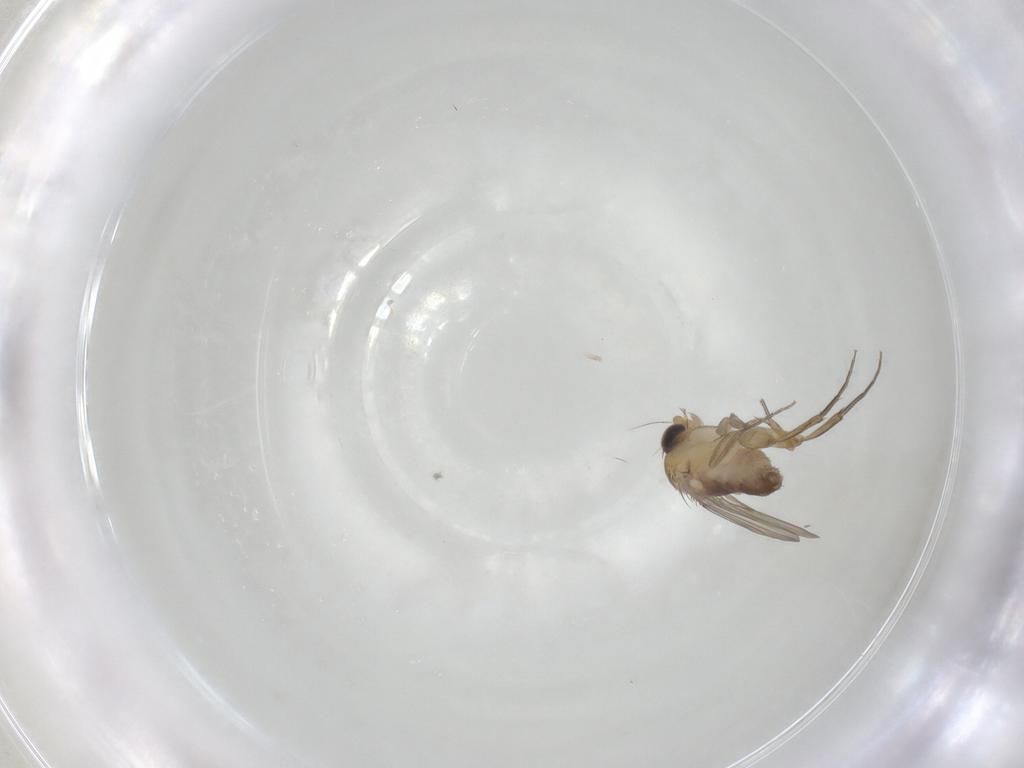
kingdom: Animalia
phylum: Arthropoda
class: Insecta
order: Diptera
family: Phoridae
